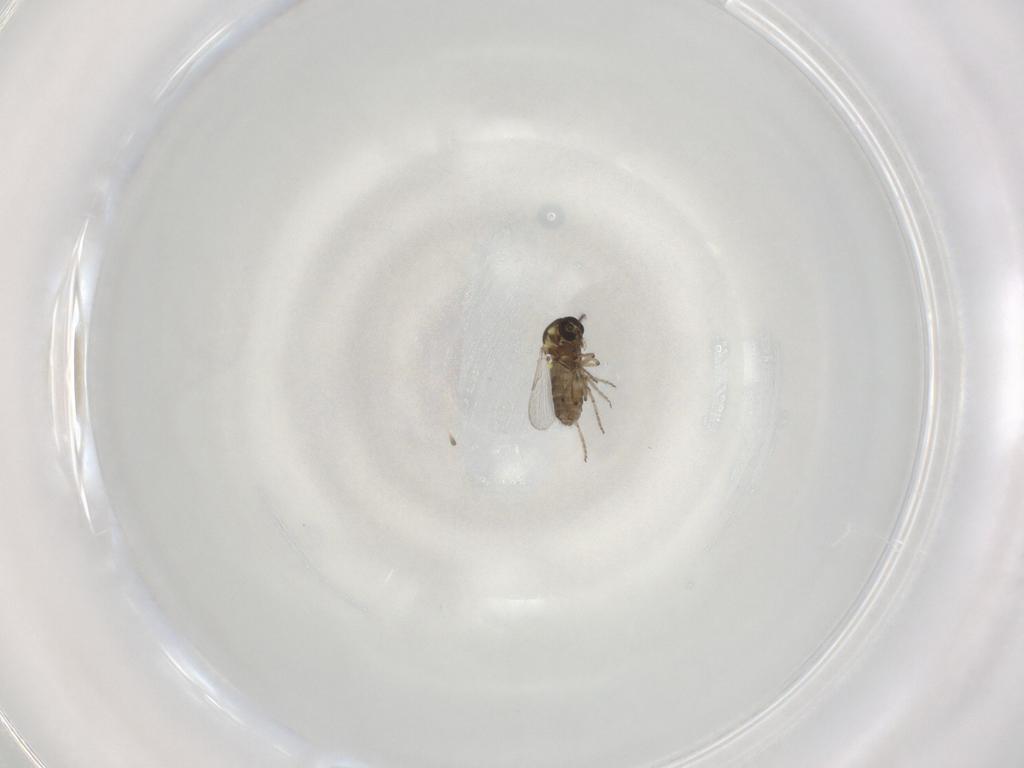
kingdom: Animalia
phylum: Arthropoda
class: Insecta
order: Diptera
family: Ceratopogonidae
